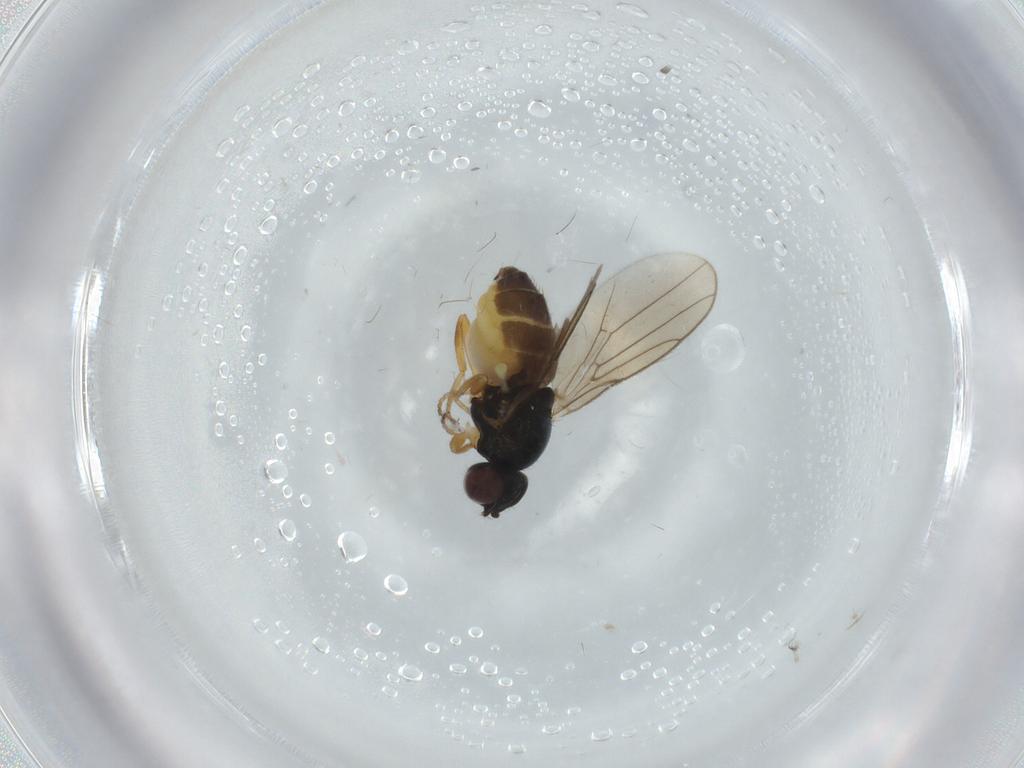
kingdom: Animalia
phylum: Arthropoda
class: Insecta
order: Diptera
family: Chloropidae
